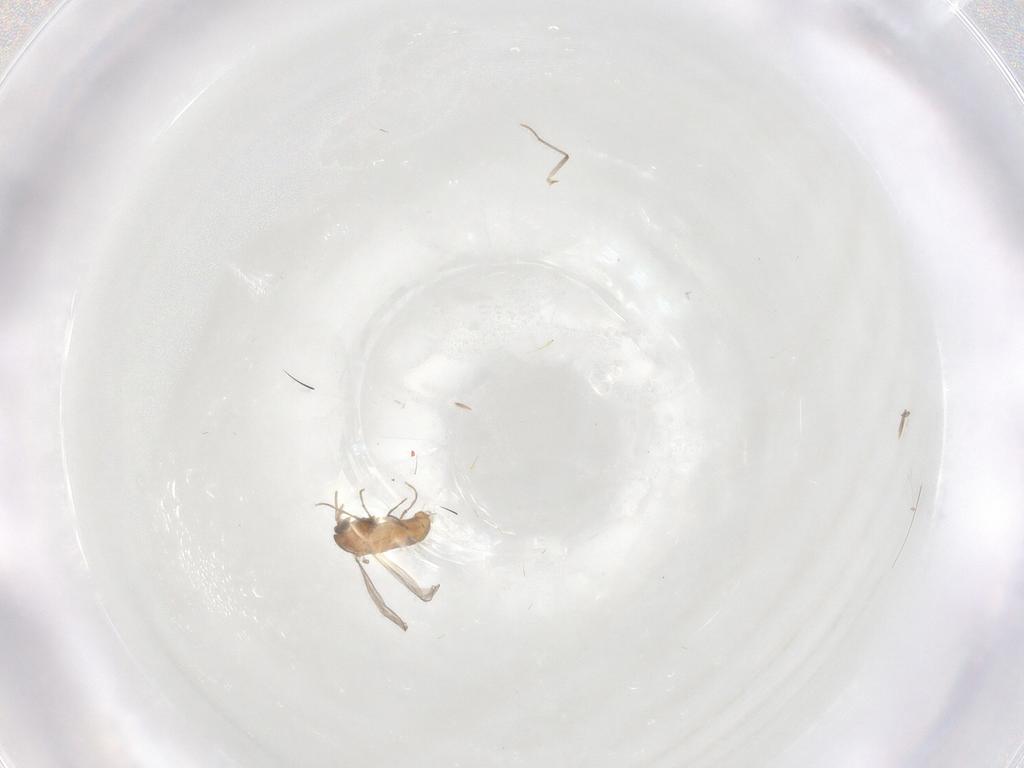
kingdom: Animalia
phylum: Arthropoda
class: Insecta
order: Diptera
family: Chironomidae
